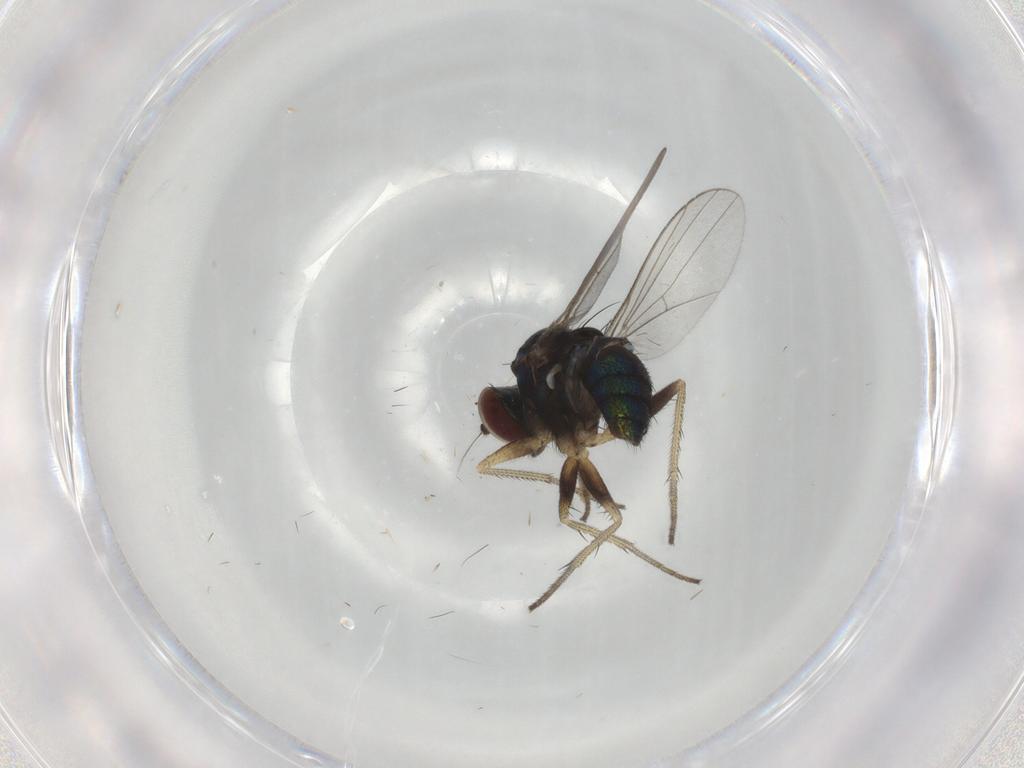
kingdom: Animalia
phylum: Arthropoda
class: Insecta
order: Diptera
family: Dolichopodidae
